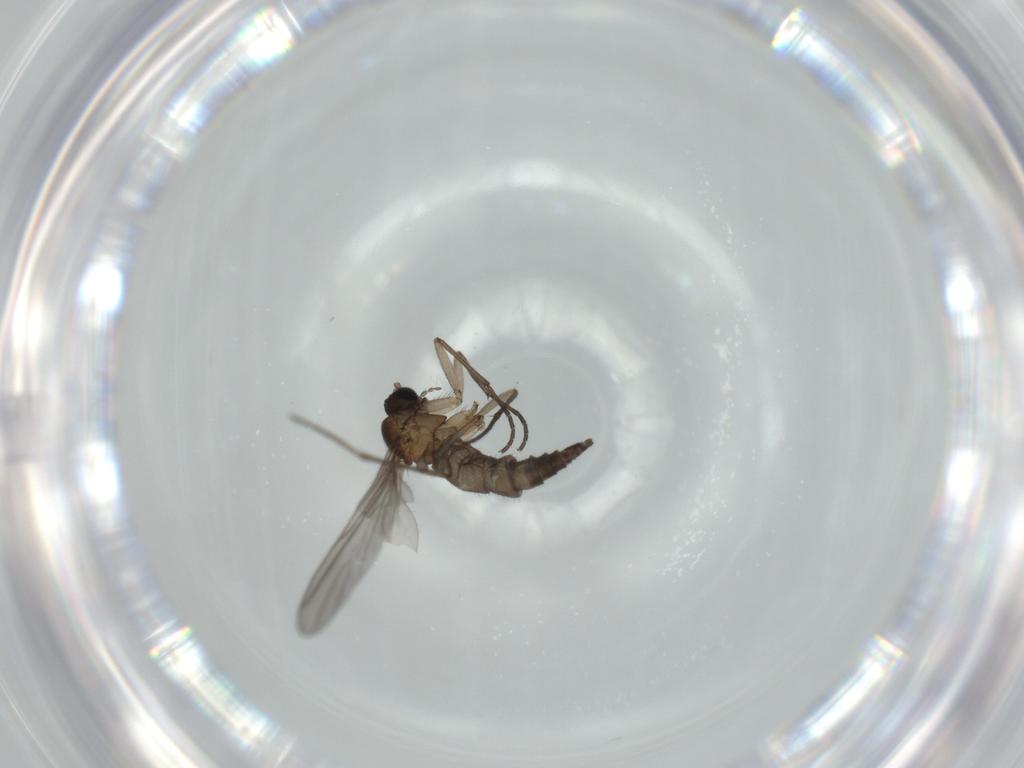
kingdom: Animalia
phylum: Arthropoda
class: Insecta
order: Diptera
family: Sciaridae
